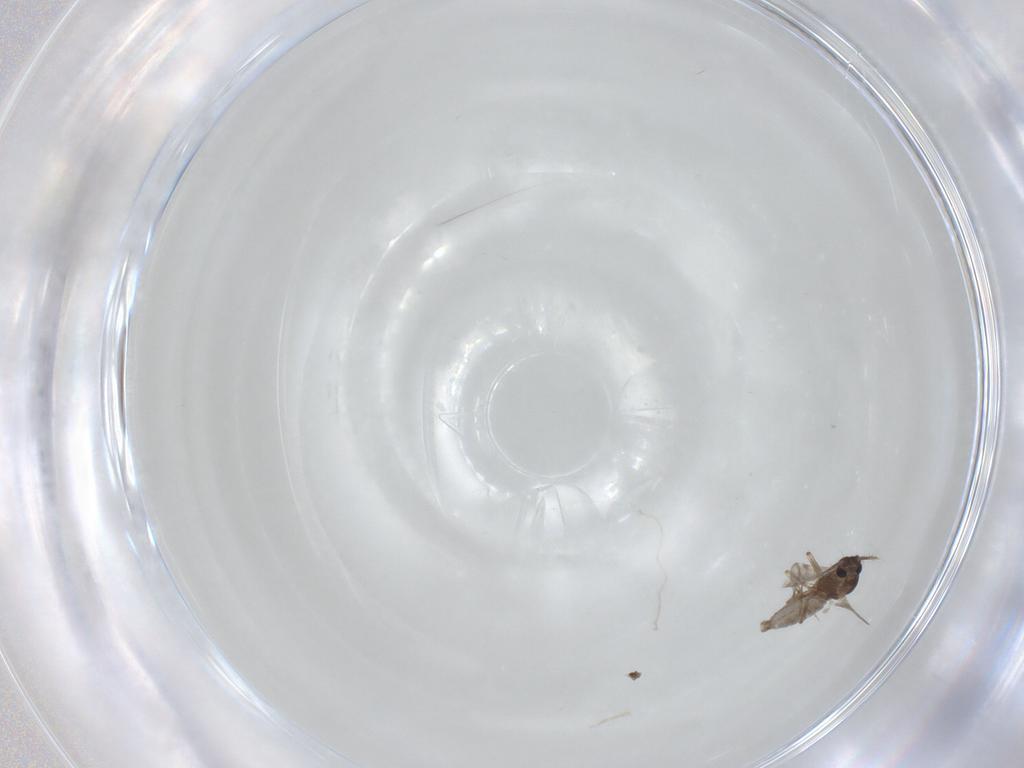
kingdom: Animalia
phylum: Arthropoda
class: Insecta
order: Diptera
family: Ceratopogonidae
